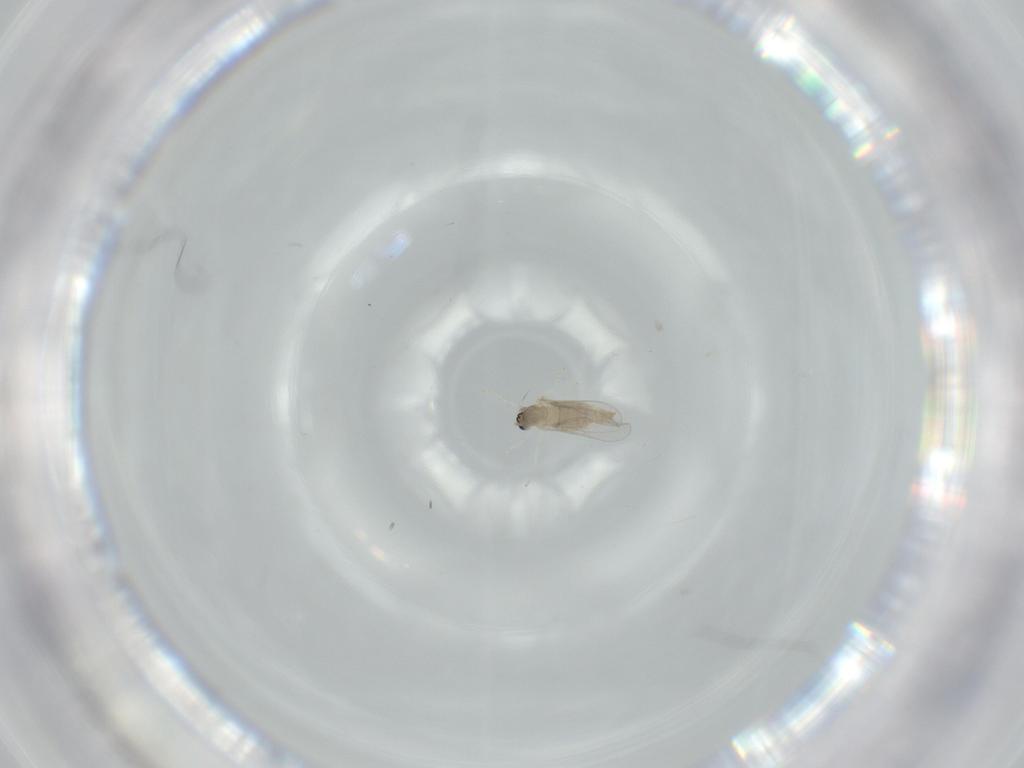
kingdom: Animalia
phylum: Arthropoda
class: Insecta
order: Diptera
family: Cecidomyiidae
